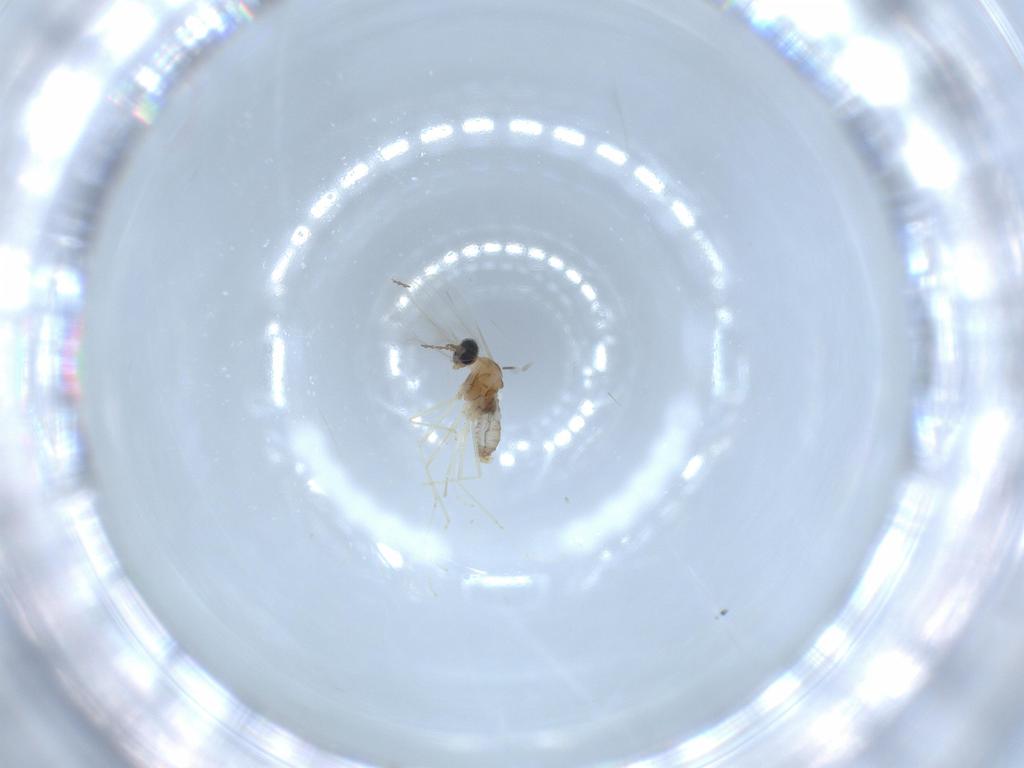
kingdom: Animalia
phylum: Arthropoda
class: Insecta
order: Diptera
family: Cecidomyiidae
